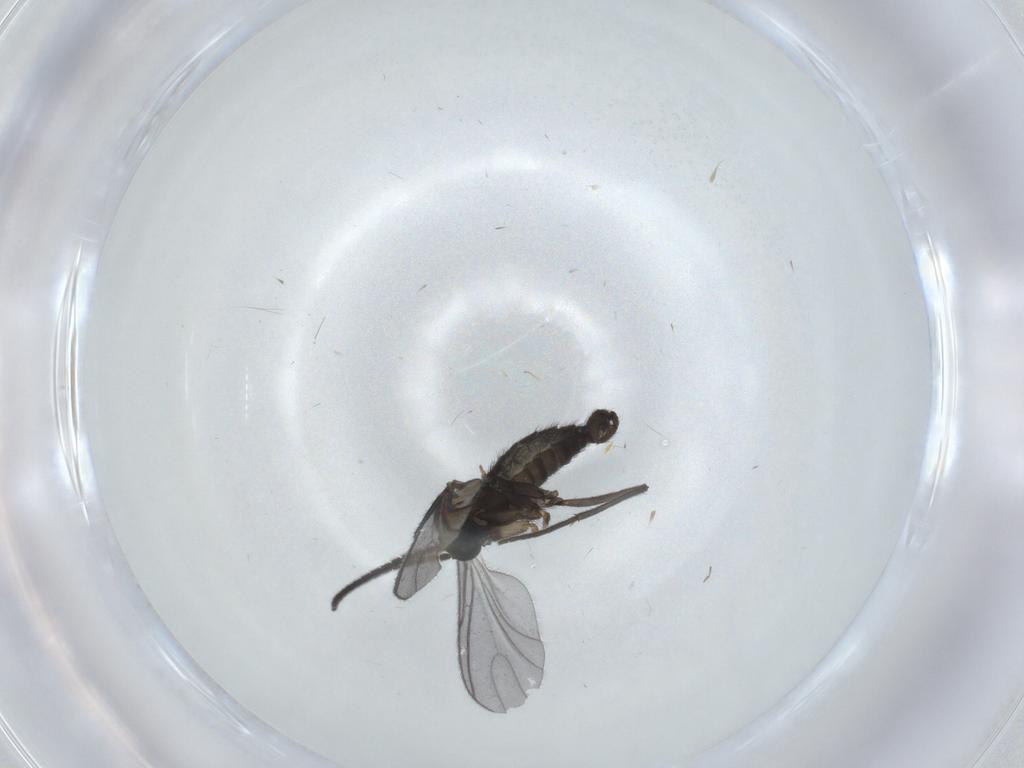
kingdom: Animalia
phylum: Arthropoda
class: Insecta
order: Diptera
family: Sciaridae
